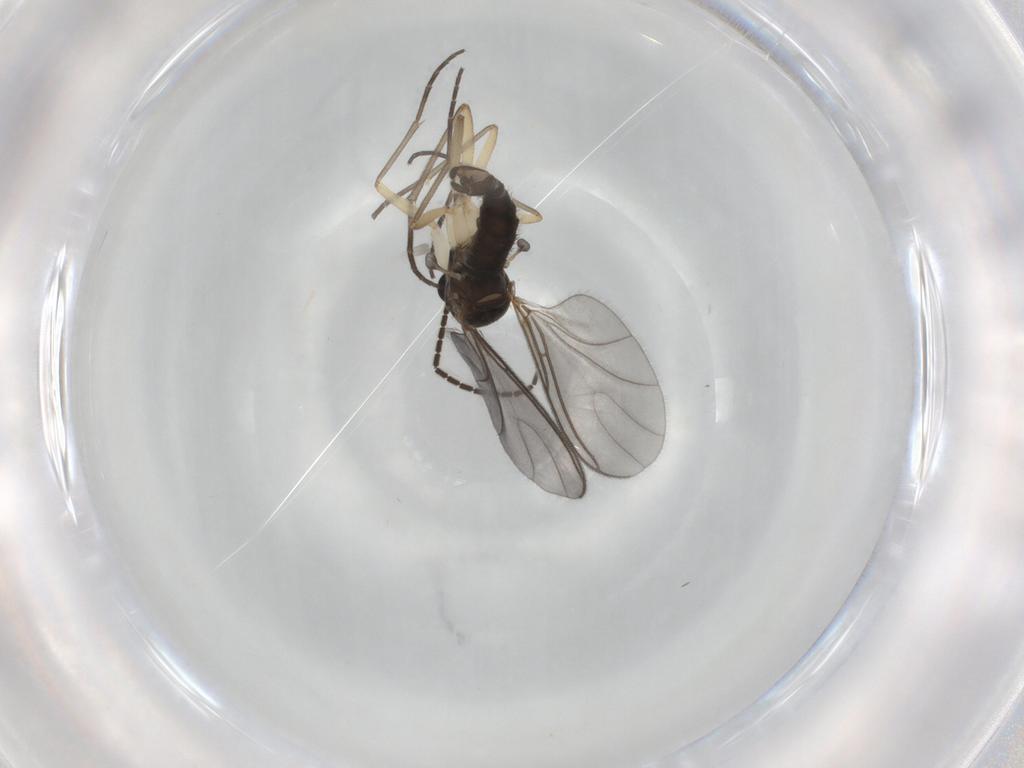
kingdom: Animalia
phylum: Arthropoda
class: Insecta
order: Diptera
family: Sciaridae
